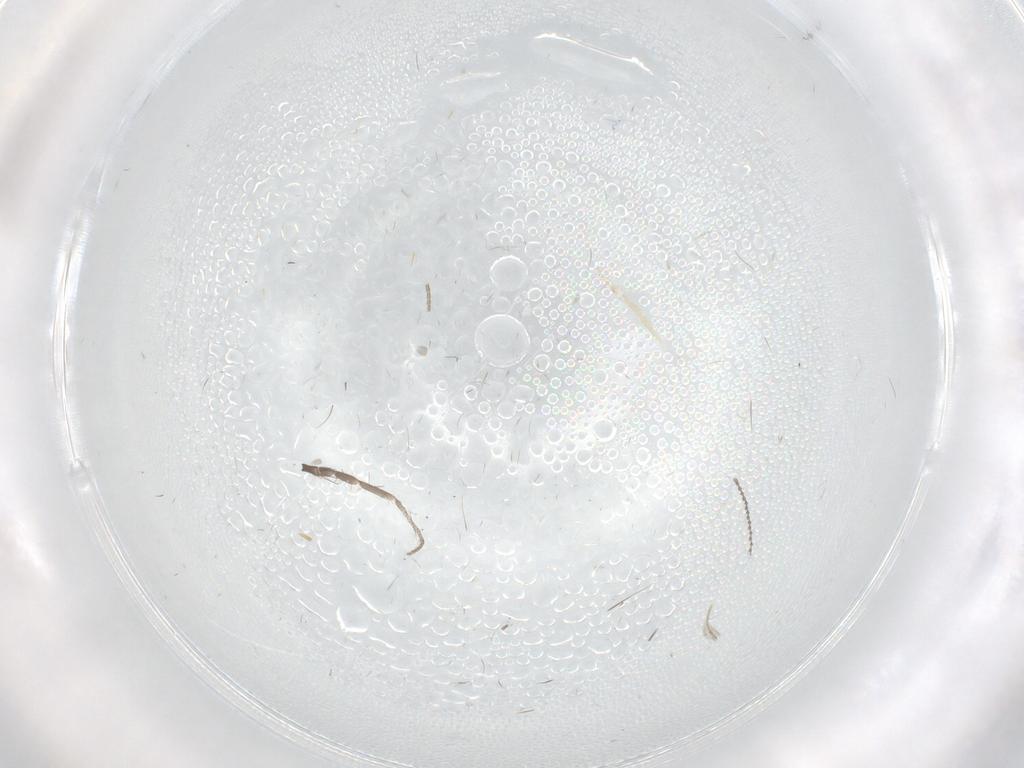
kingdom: Animalia
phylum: Arthropoda
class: Insecta
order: Diptera
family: Chironomidae
